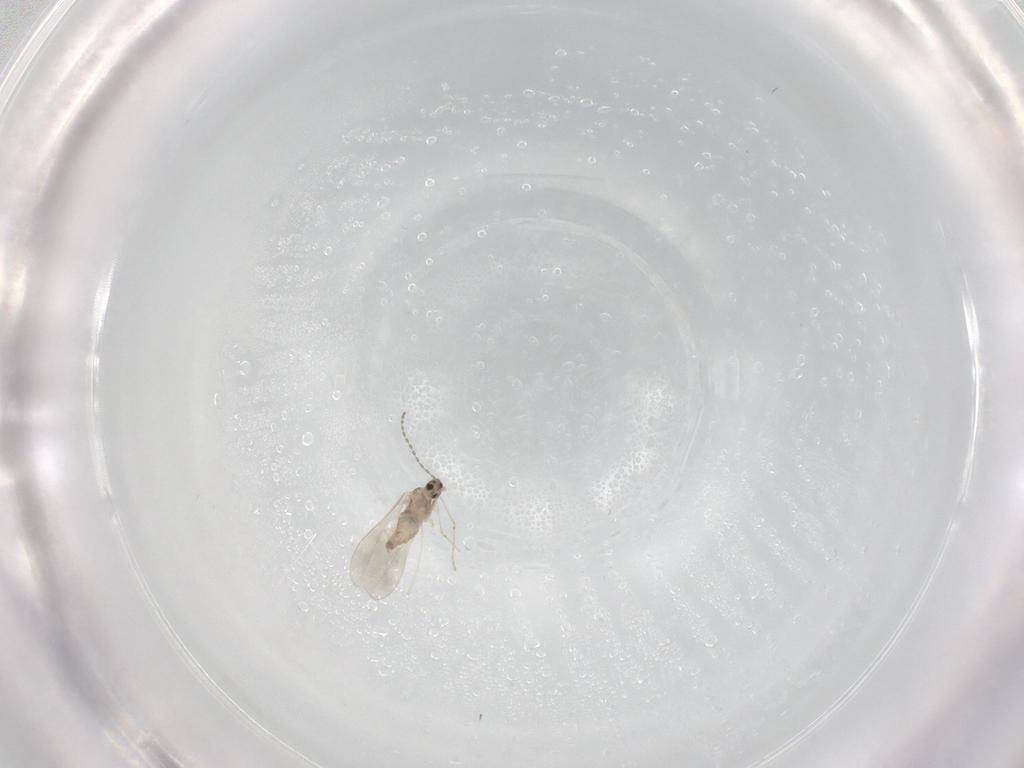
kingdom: Animalia
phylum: Arthropoda
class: Insecta
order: Diptera
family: Cecidomyiidae
